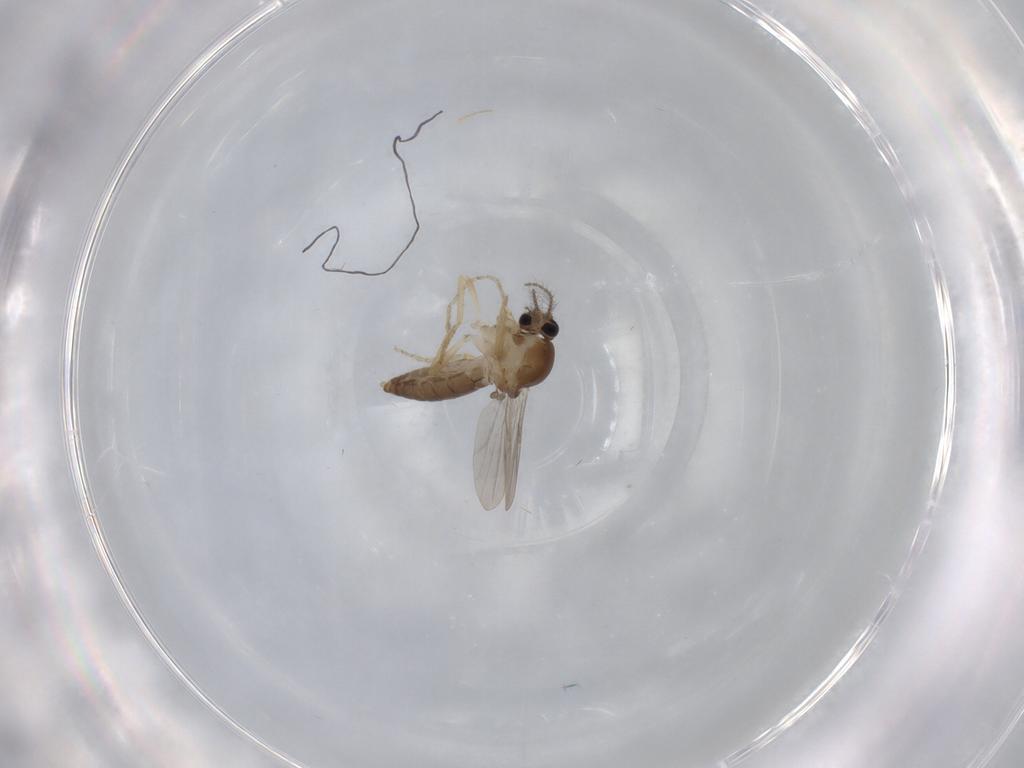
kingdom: Animalia
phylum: Arthropoda
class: Insecta
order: Diptera
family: Ceratopogonidae
